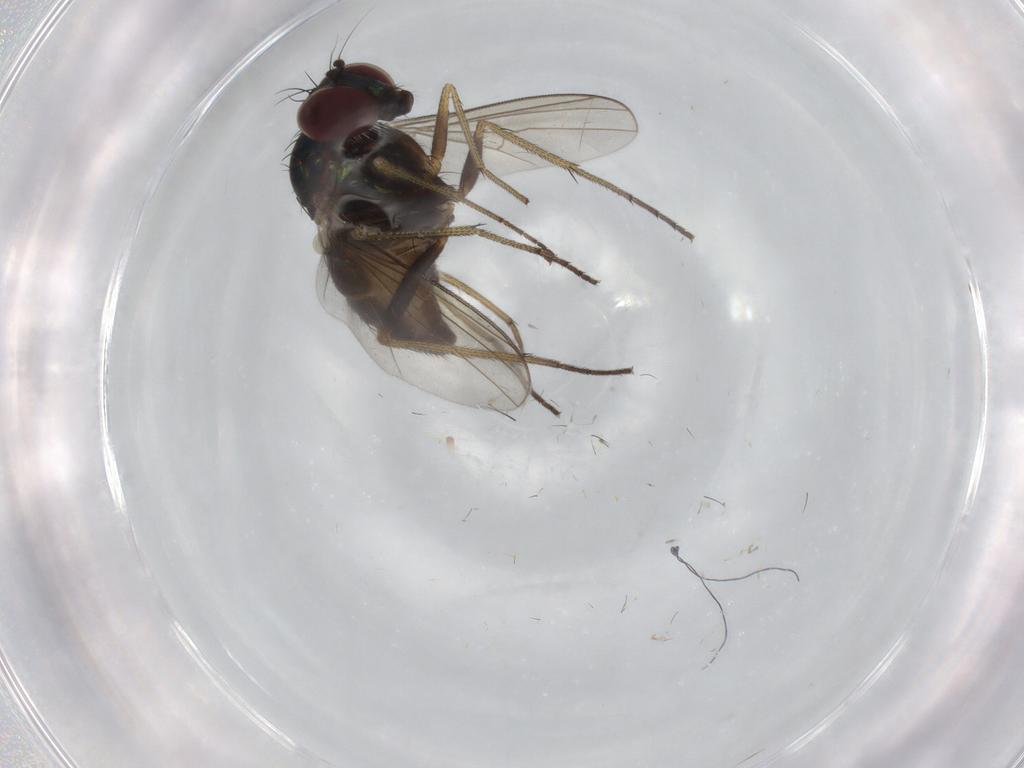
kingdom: Animalia
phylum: Arthropoda
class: Insecta
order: Diptera
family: Dolichopodidae
